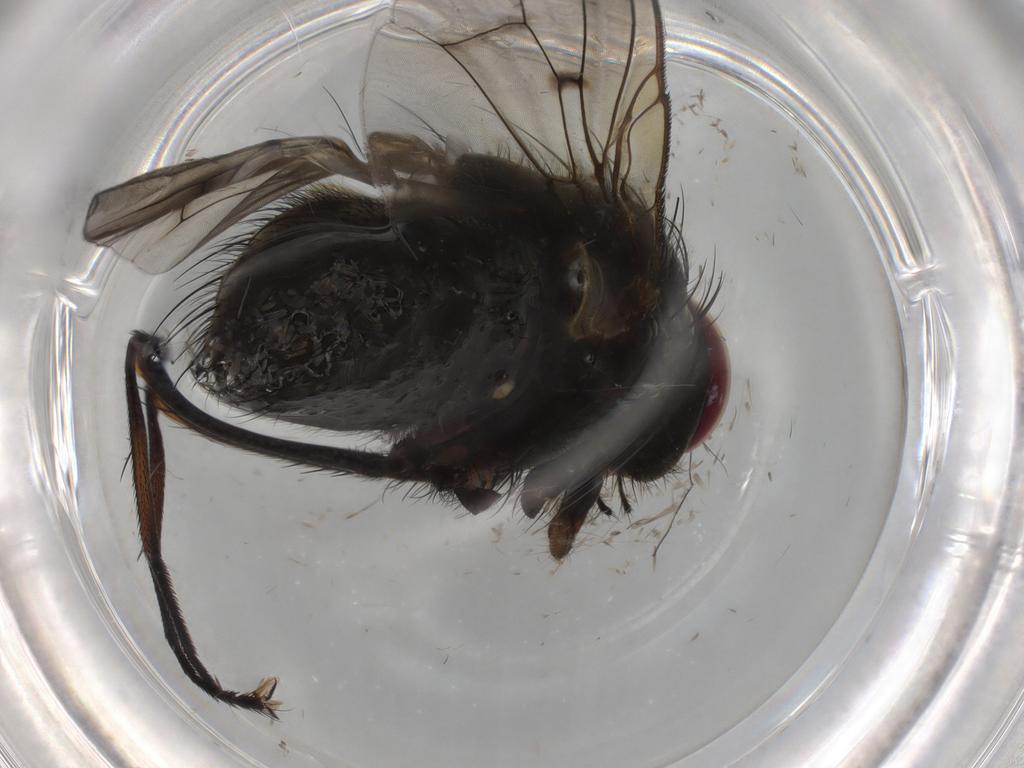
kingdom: Animalia
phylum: Arthropoda
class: Insecta
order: Diptera
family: Muscidae
